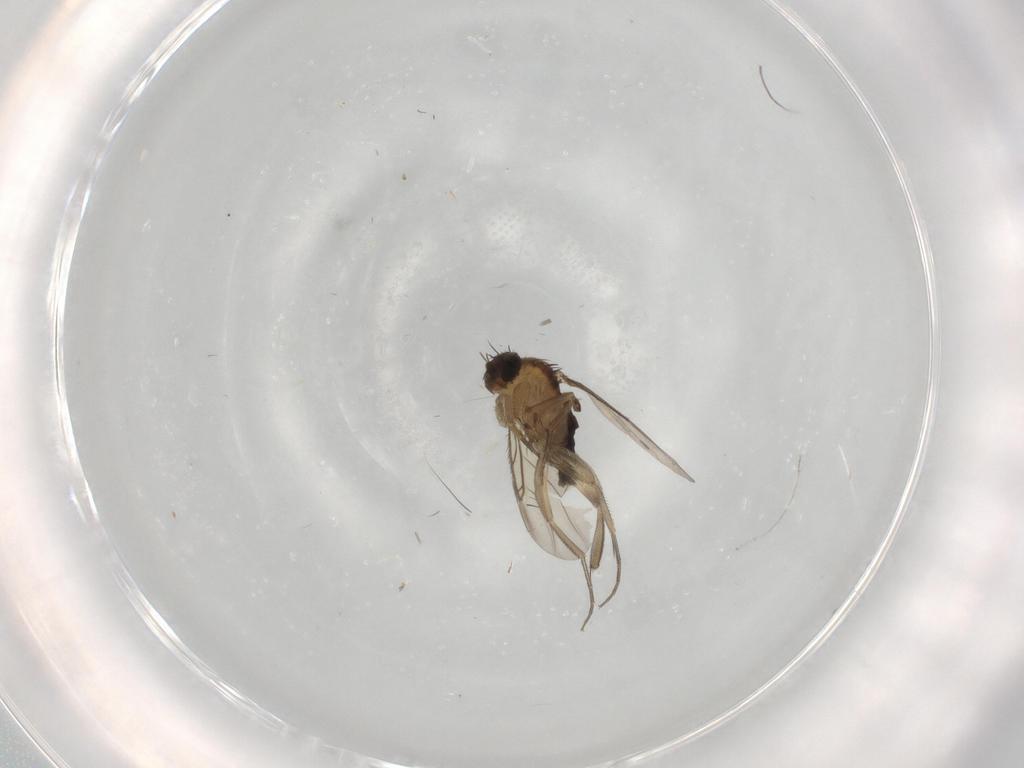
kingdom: Animalia
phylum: Arthropoda
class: Insecta
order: Diptera
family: Phoridae
